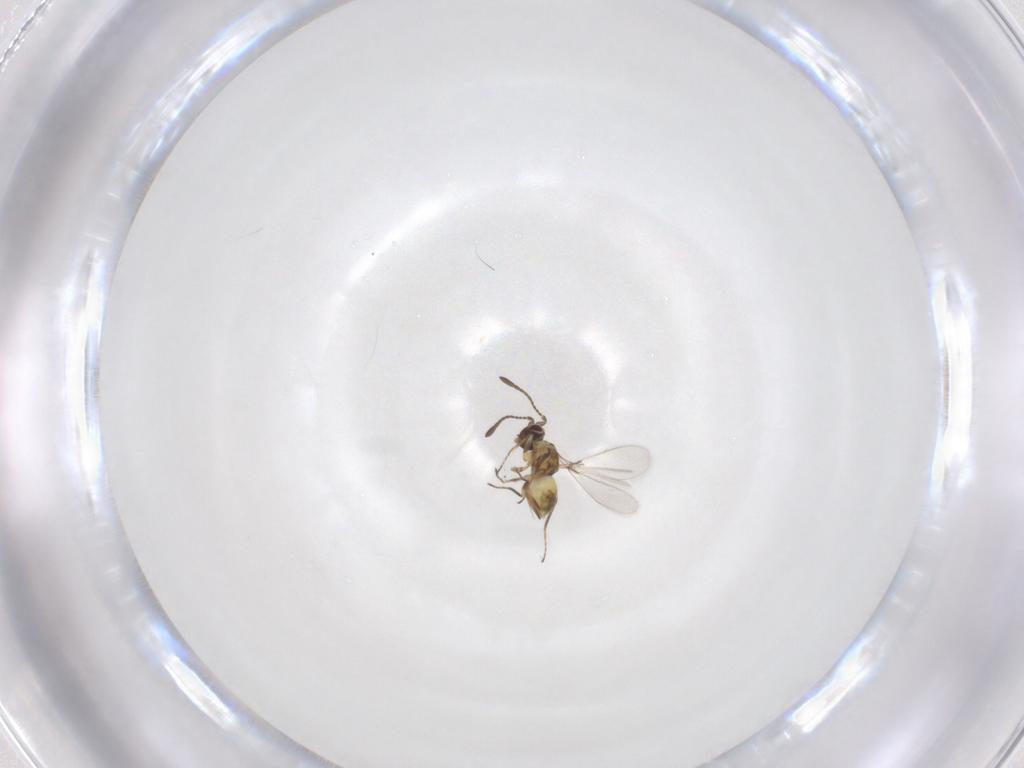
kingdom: Animalia
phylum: Arthropoda
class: Insecta
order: Hymenoptera
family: Mymaridae
